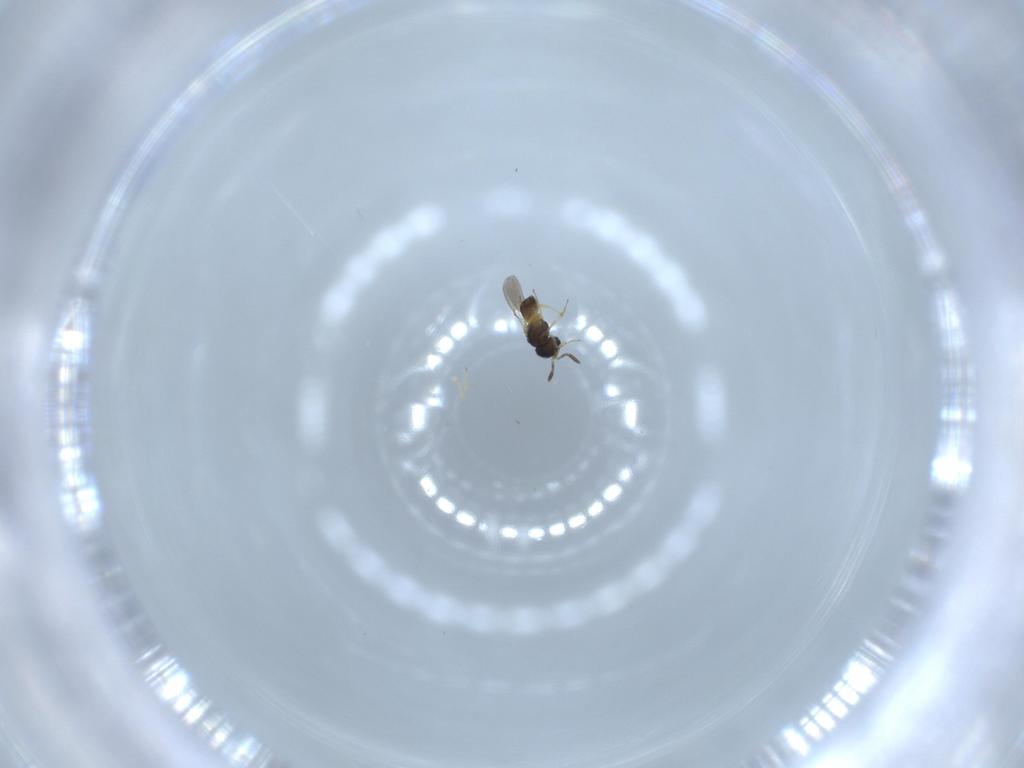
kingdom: Animalia
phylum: Arthropoda
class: Insecta
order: Hymenoptera
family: Scelionidae
